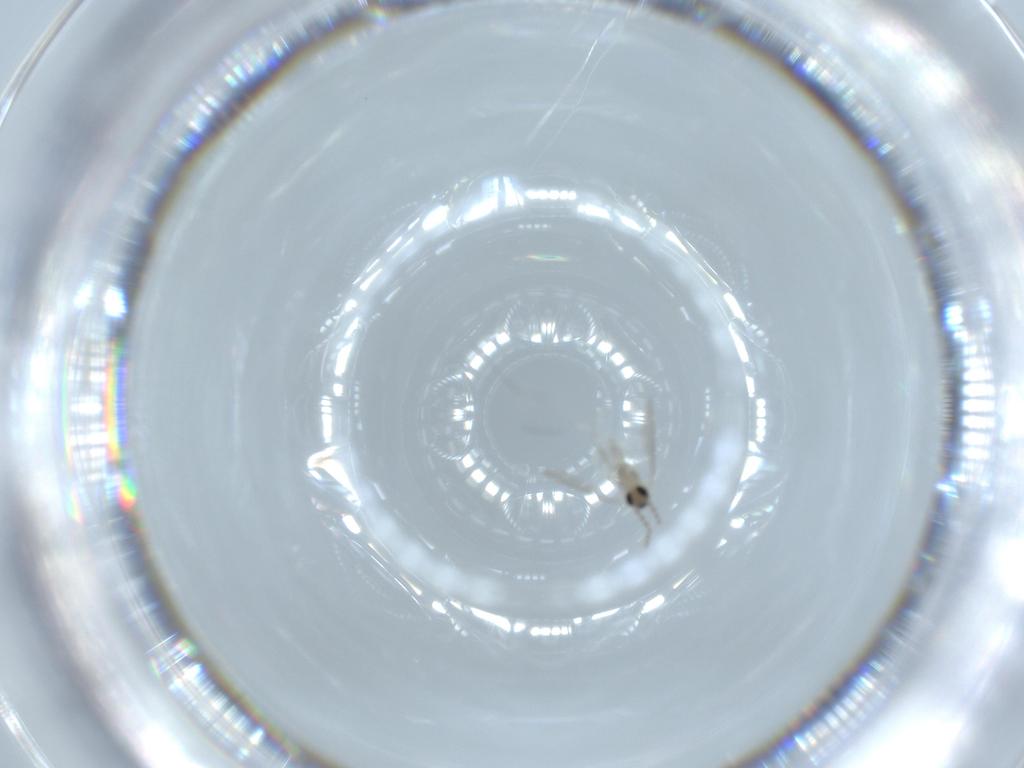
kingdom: Animalia
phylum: Arthropoda
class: Insecta
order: Diptera
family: Cecidomyiidae
